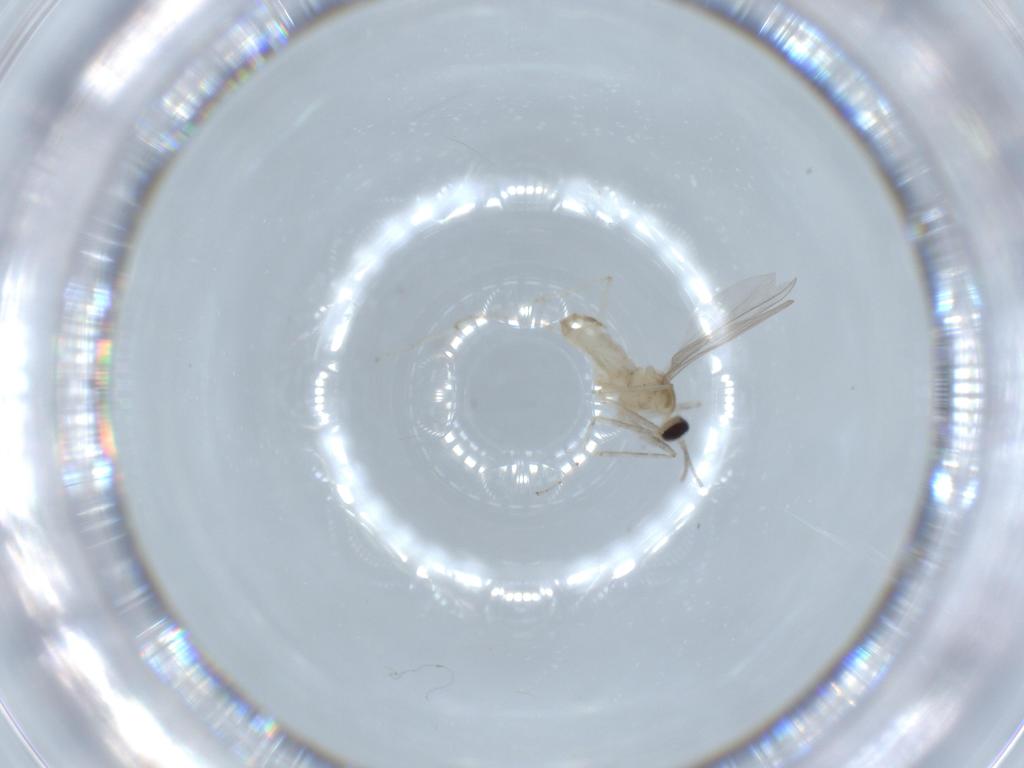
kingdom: Animalia
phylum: Arthropoda
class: Insecta
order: Diptera
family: Cecidomyiidae
